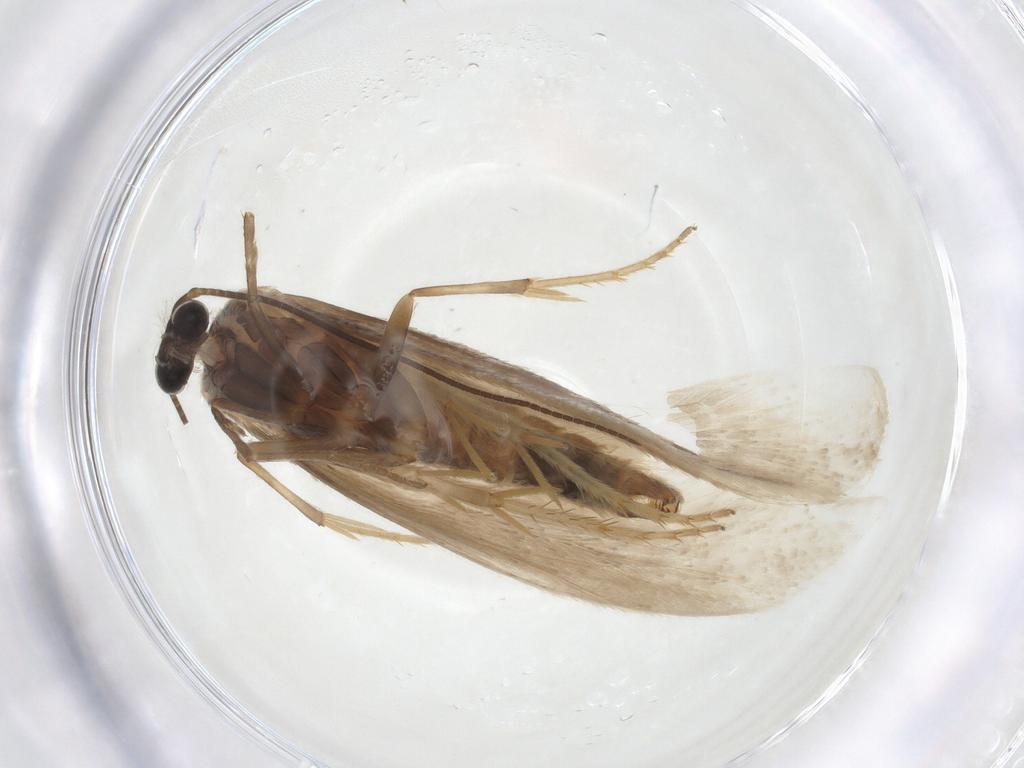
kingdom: Animalia
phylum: Arthropoda
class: Insecta
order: Lepidoptera
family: Tridentaformidae
